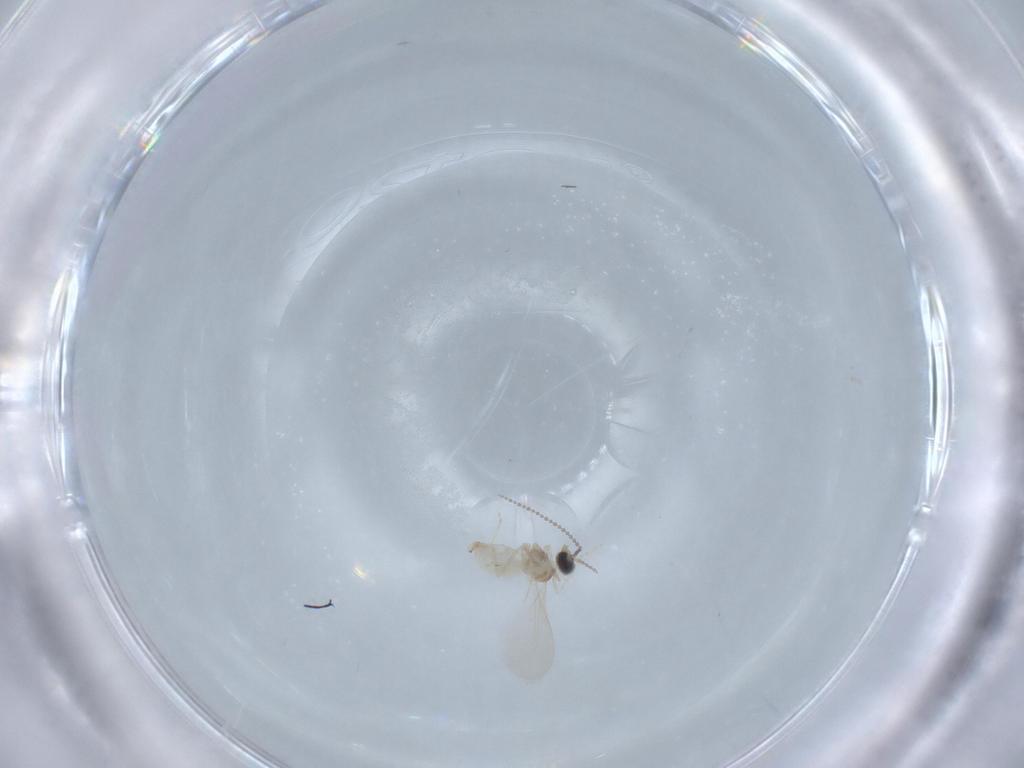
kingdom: Animalia
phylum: Arthropoda
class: Insecta
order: Diptera
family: Cecidomyiidae
